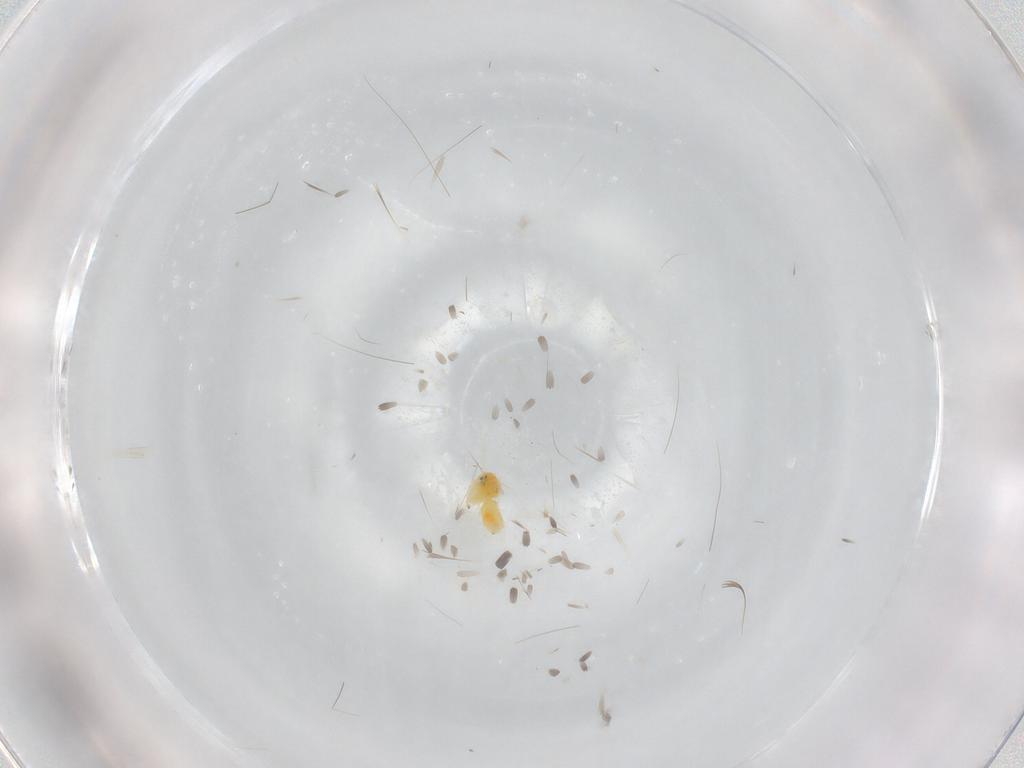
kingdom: Animalia
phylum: Arthropoda
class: Insecta
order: Hemiptera
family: Aleyrodidae
